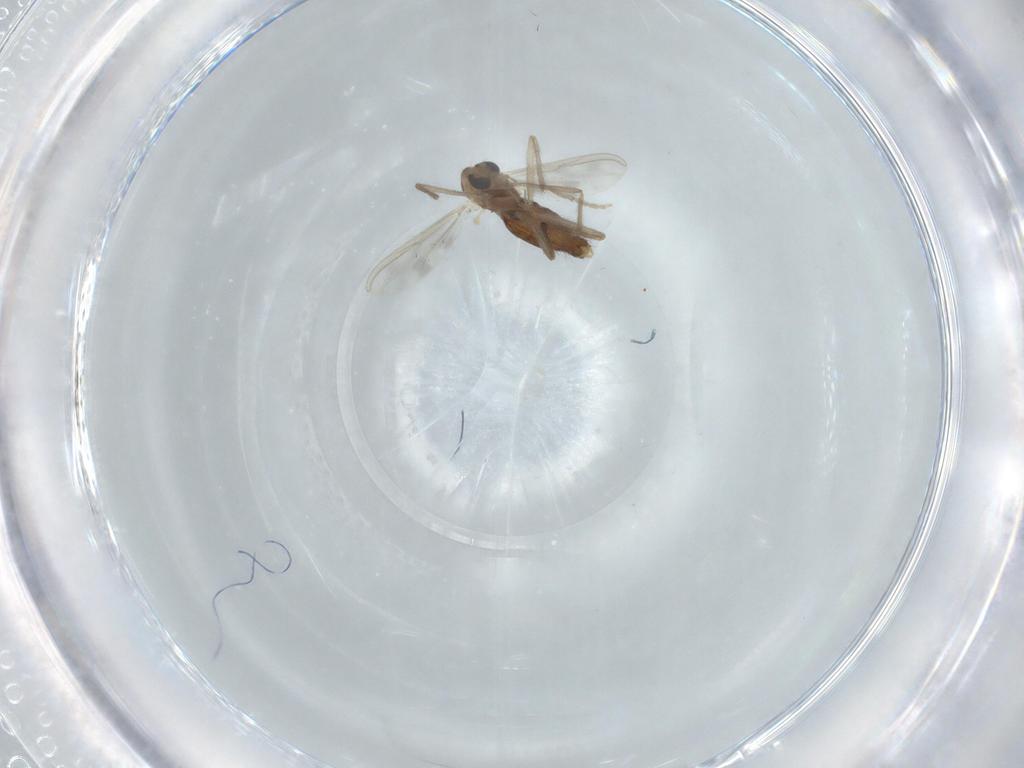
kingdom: Animalia
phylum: Arthropoda
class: Insecta
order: Diptera
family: Chironomidae
